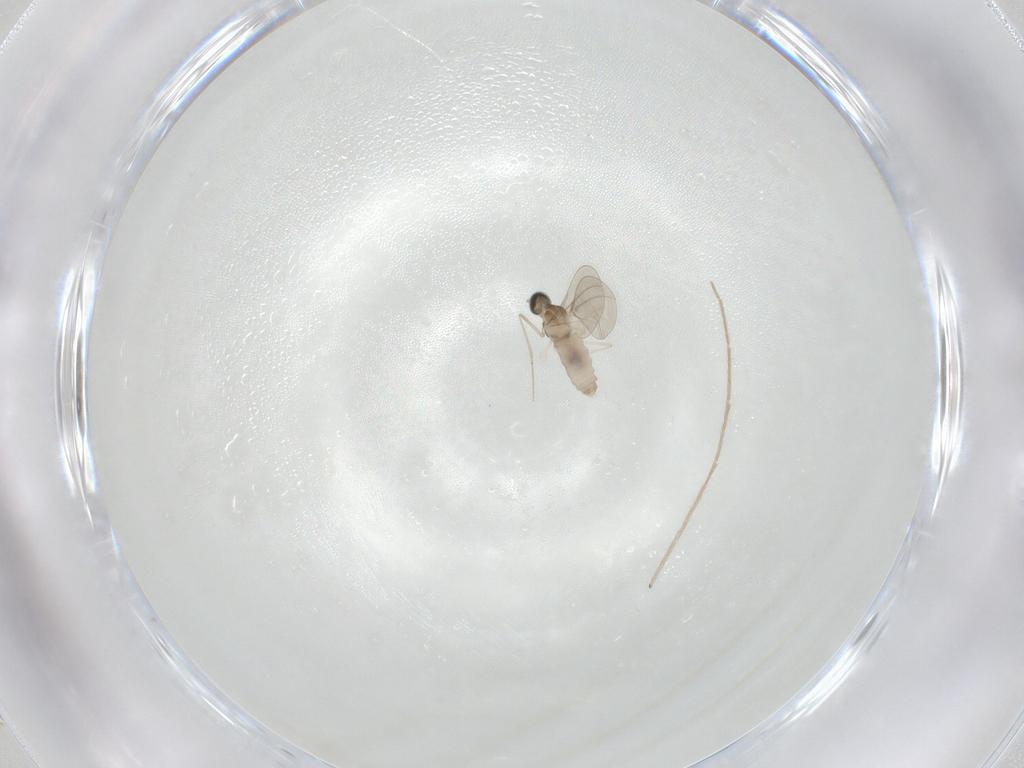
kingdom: Animalia
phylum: Arthropoda
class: Insecta
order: Diptera
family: Cecidomyiidae
